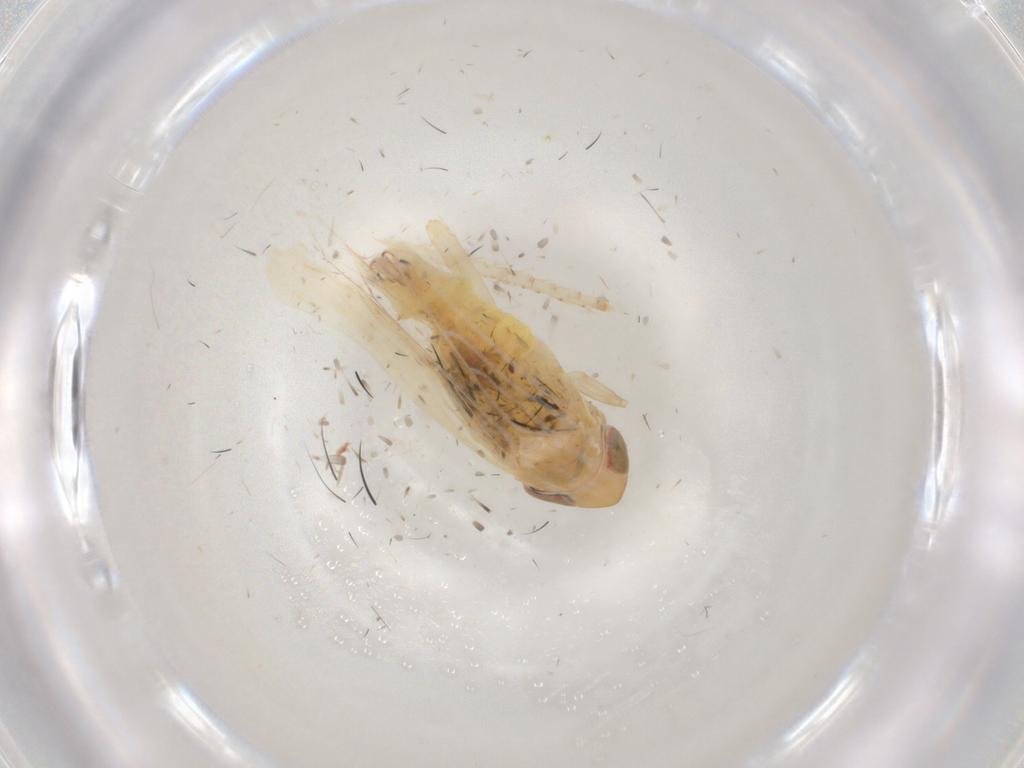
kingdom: Animalia
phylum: Arthropoda
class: Insecta
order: Hemiptera
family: Cicadellidae
